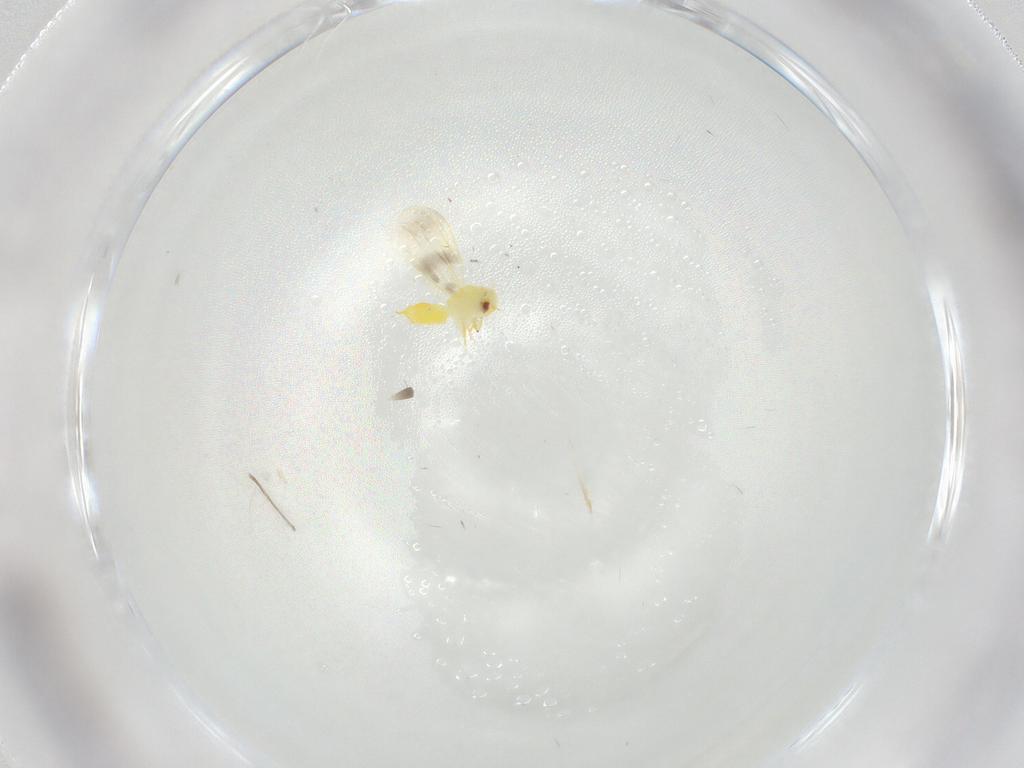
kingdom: Animalia
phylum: Arthropoda
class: Insecta
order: Hemiptera
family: Aleyrodidae
